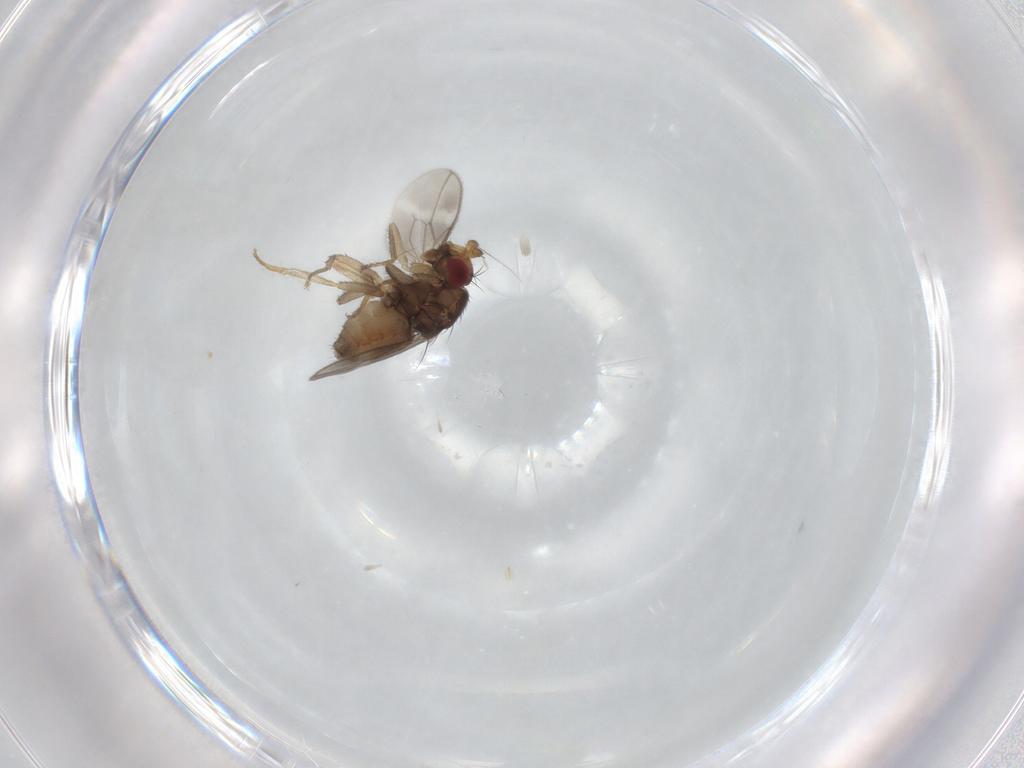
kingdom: Animalia
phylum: Arthropoda
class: Insecta
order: Diptera
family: Sphaeroceridae
